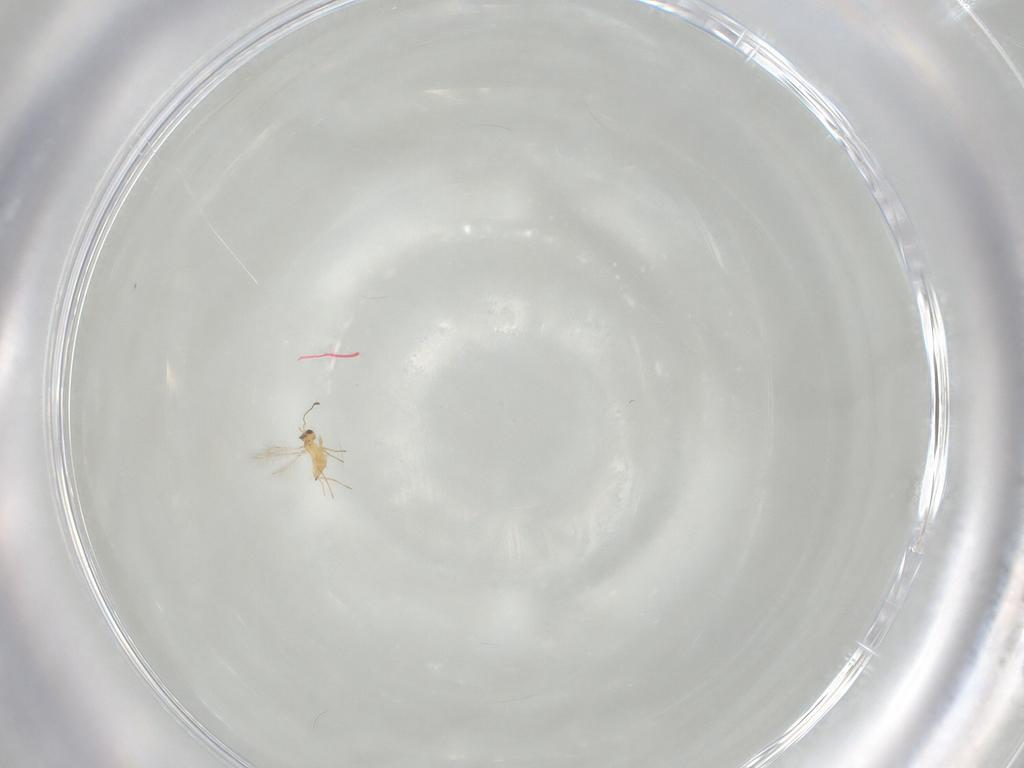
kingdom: Animalia
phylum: Arthropoda
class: Insecta
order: Hymenoptera
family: Mymaridae
